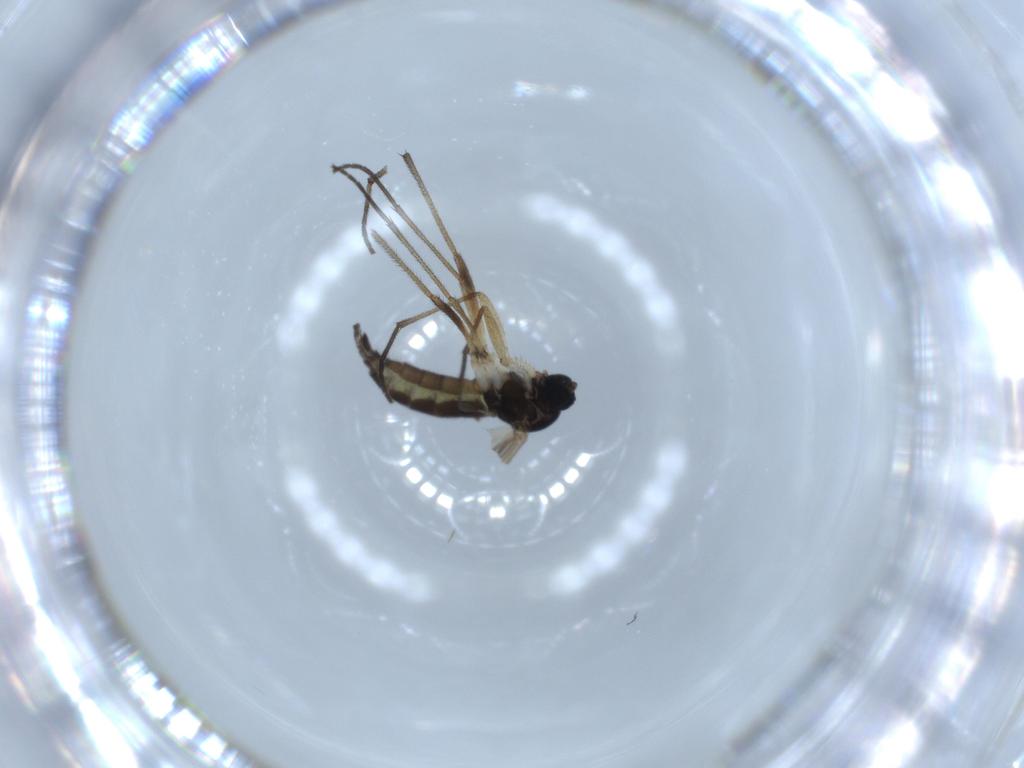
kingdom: Animalia
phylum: Arthropoda
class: Insecta
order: Diptera
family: Sciaridae
